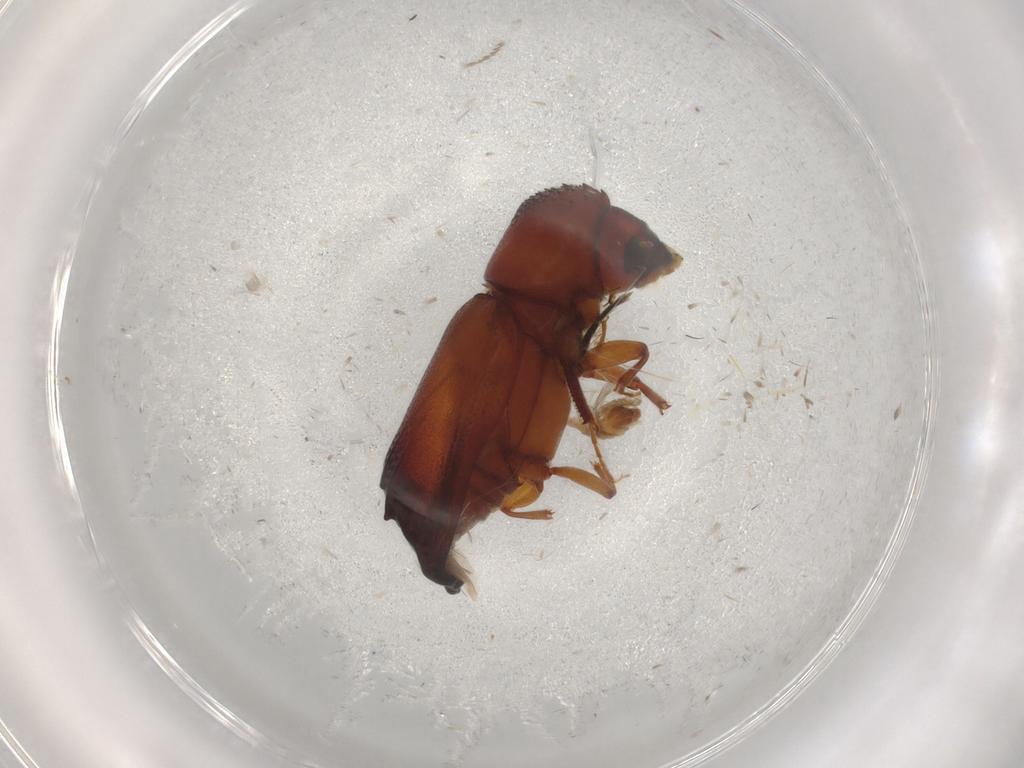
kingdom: Animalia
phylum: Arthropoda
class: Insecta
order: Coleoptera
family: Bostrichidae
